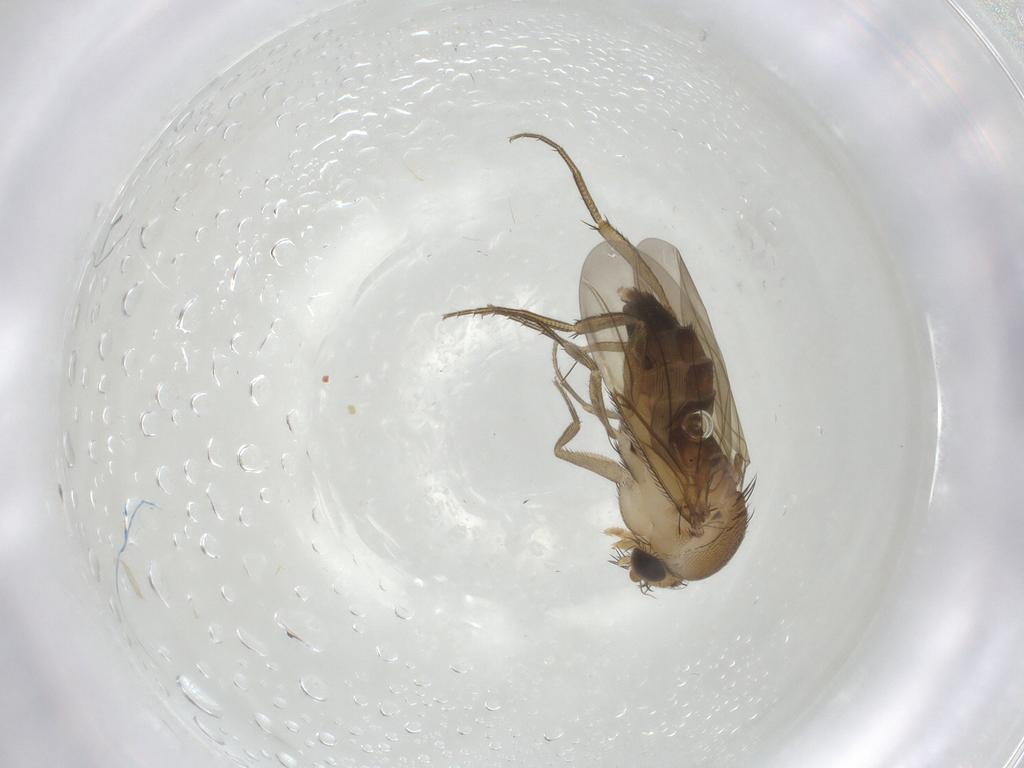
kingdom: Animalia
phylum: Arthropoda
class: Insecta
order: Diptera
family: Phoridae
